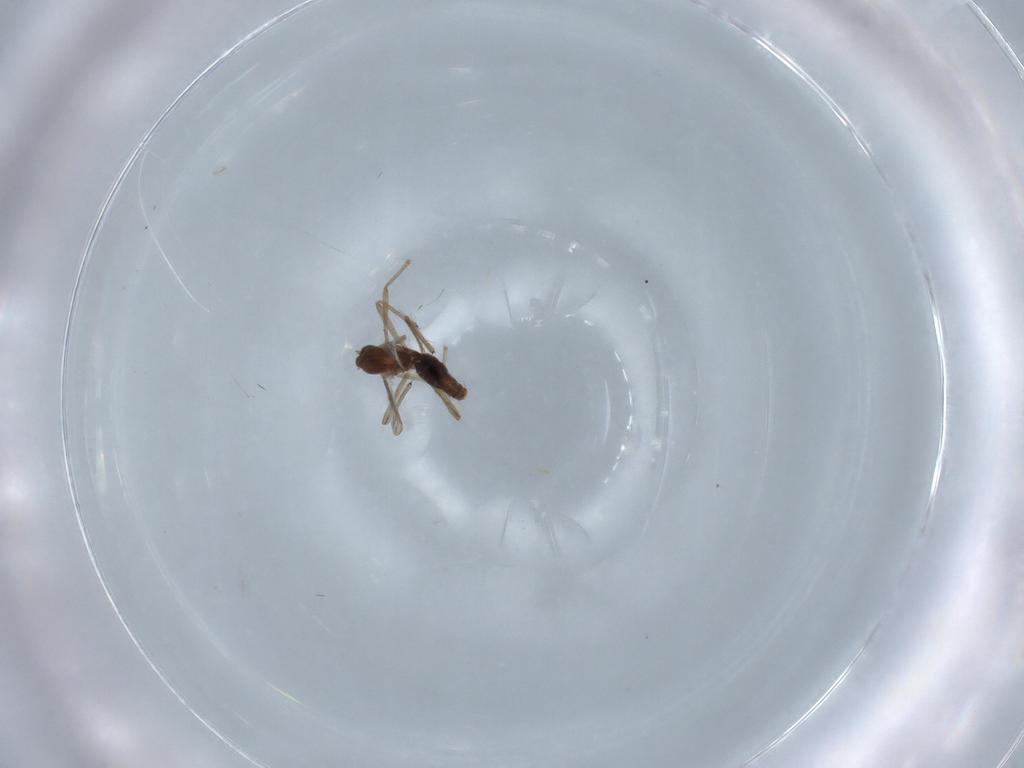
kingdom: Animalia
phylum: Arthropoda
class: Insecta
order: Diptera
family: Chironomidae
